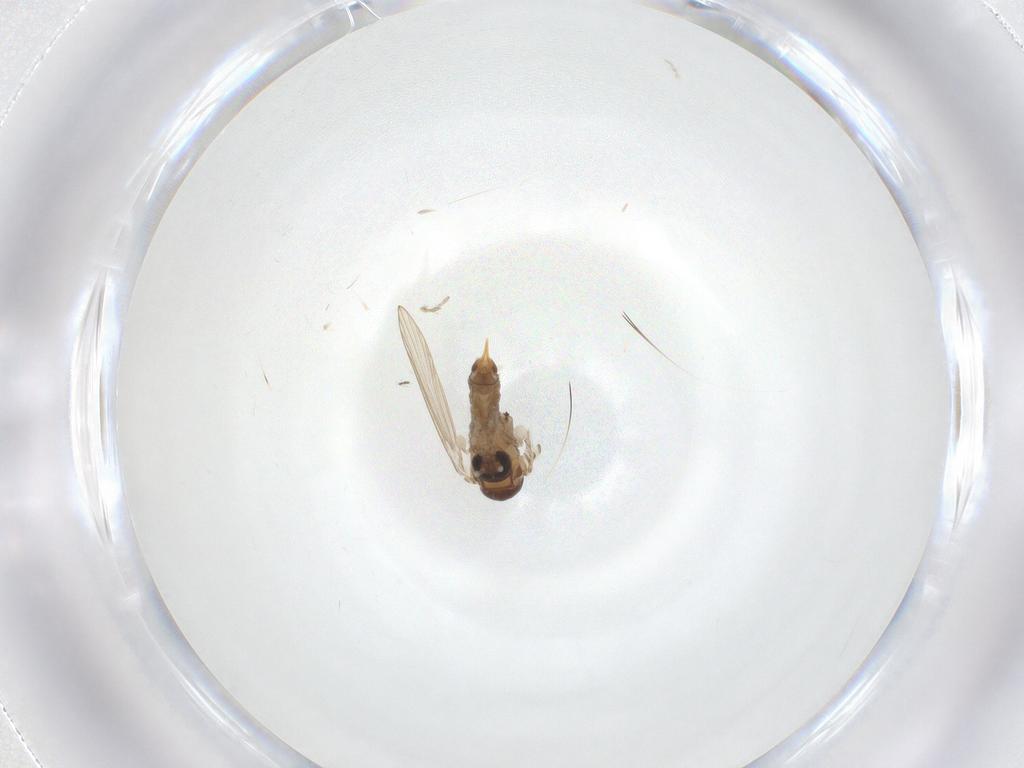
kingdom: Animalia
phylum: Arthropoda
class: Insecta
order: Diptera
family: Psychodidae
